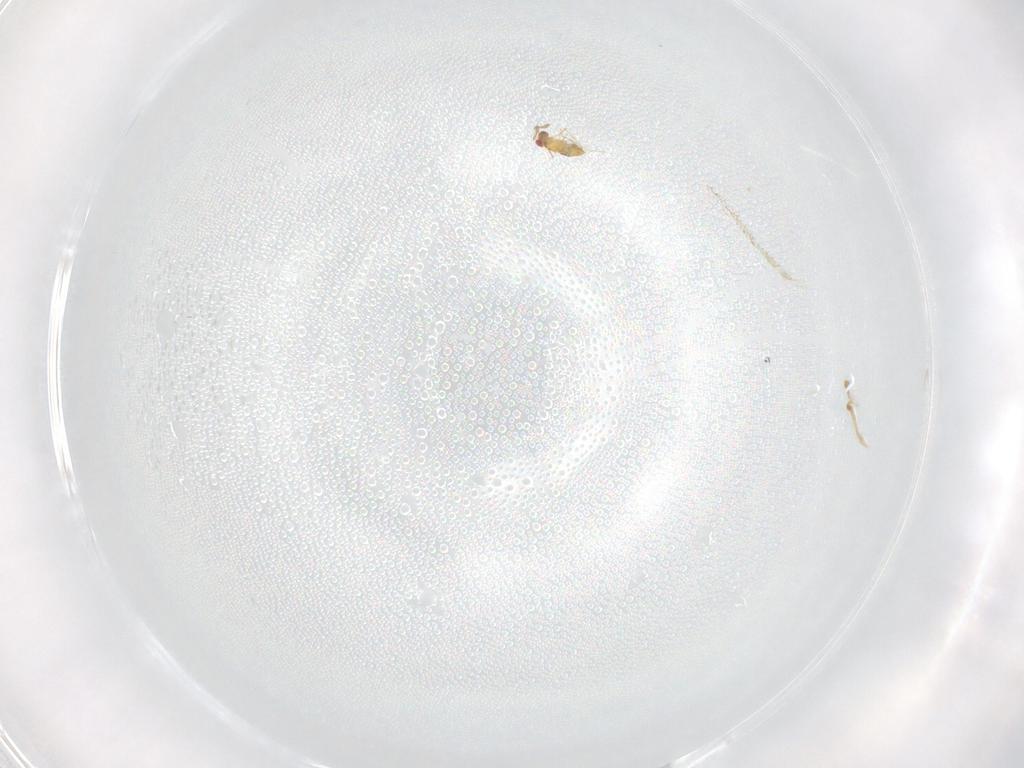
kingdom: Animalia
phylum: Arthropoda
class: Insecta
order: Hymenoptera
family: Trichogrammatidae
